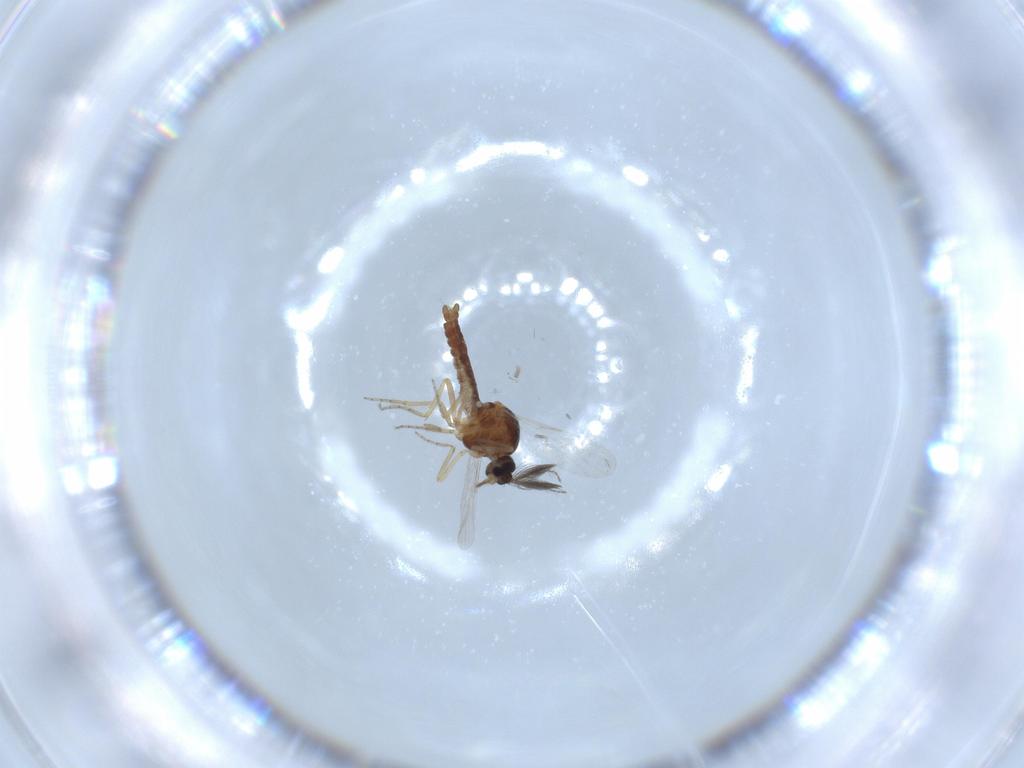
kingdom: Animalia
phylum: Arthropoda
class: Insecta
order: Diptera
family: Ceratopogonidae
